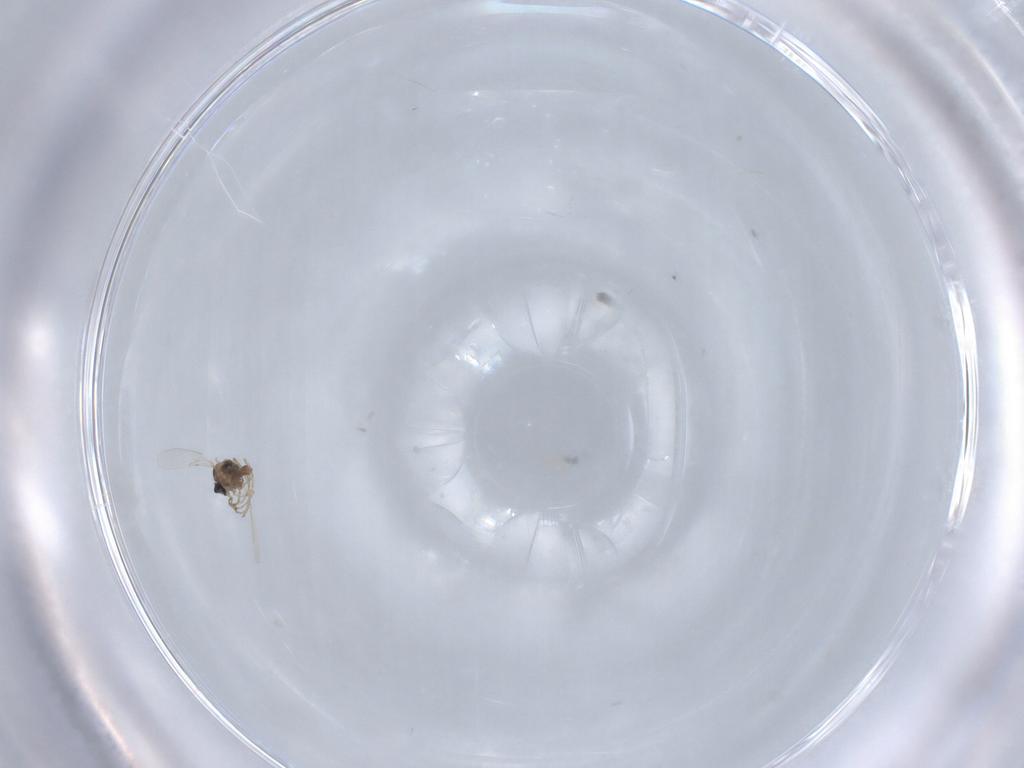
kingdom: Animalia
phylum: Arthropoda
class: Insecta
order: Diptera
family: Cecidomyiidae
